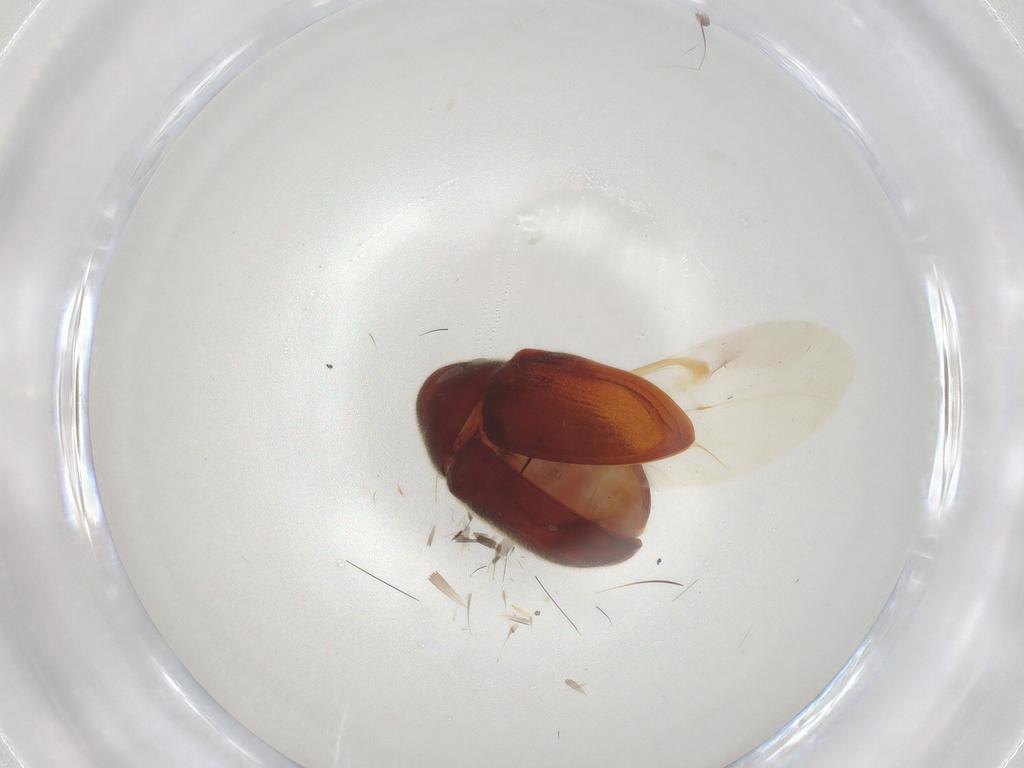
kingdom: Animalia
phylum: Arthropoda
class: Insecta
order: Coleoptera
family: Ptinidae
